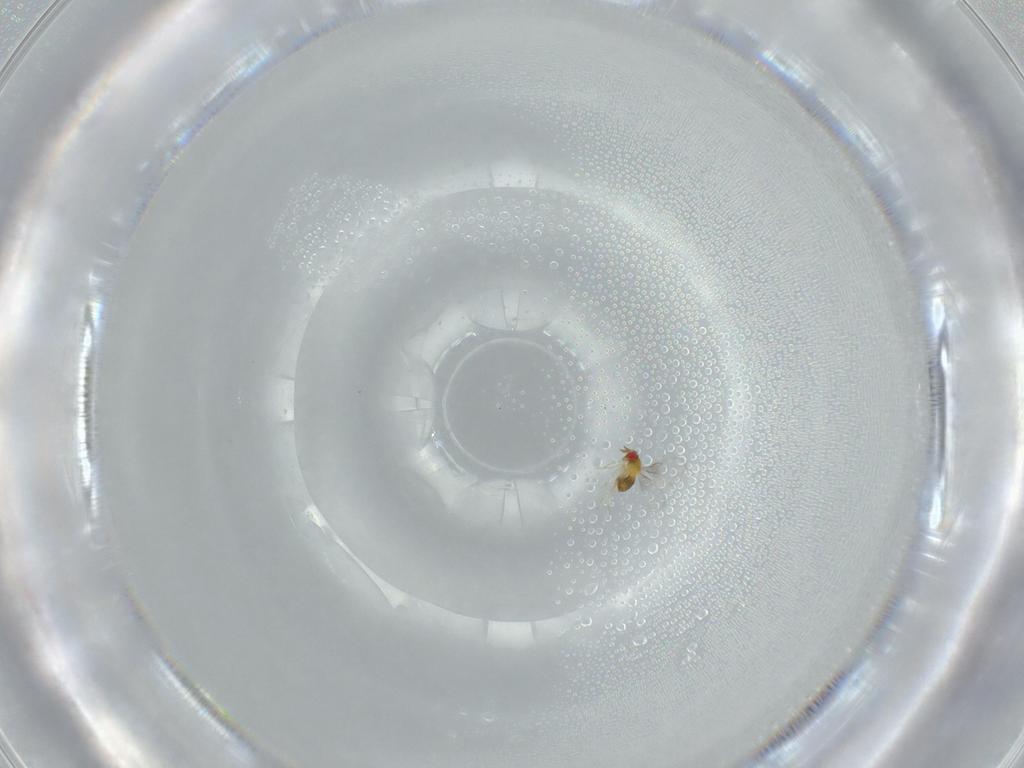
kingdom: Animalia
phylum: Arthropoda
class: Insecta
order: Hymenoptera
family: Trichogrammatidae
